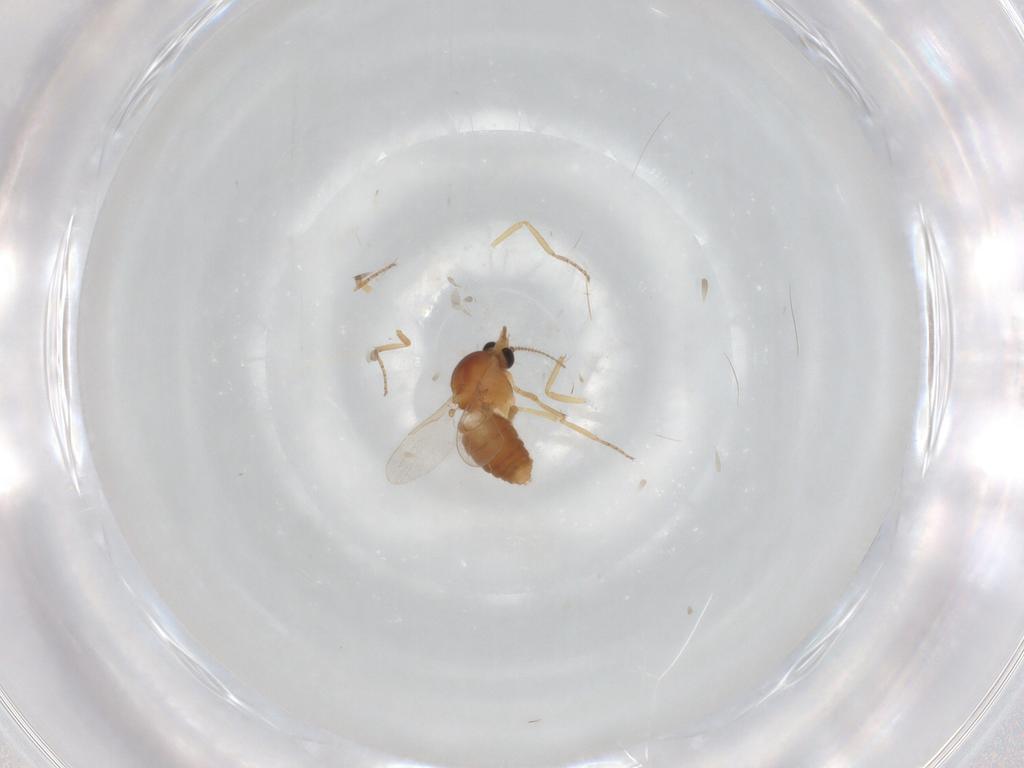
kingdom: Animalia
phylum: Arthropoda
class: Insecta
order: Diptera
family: Ceratopogonidae
